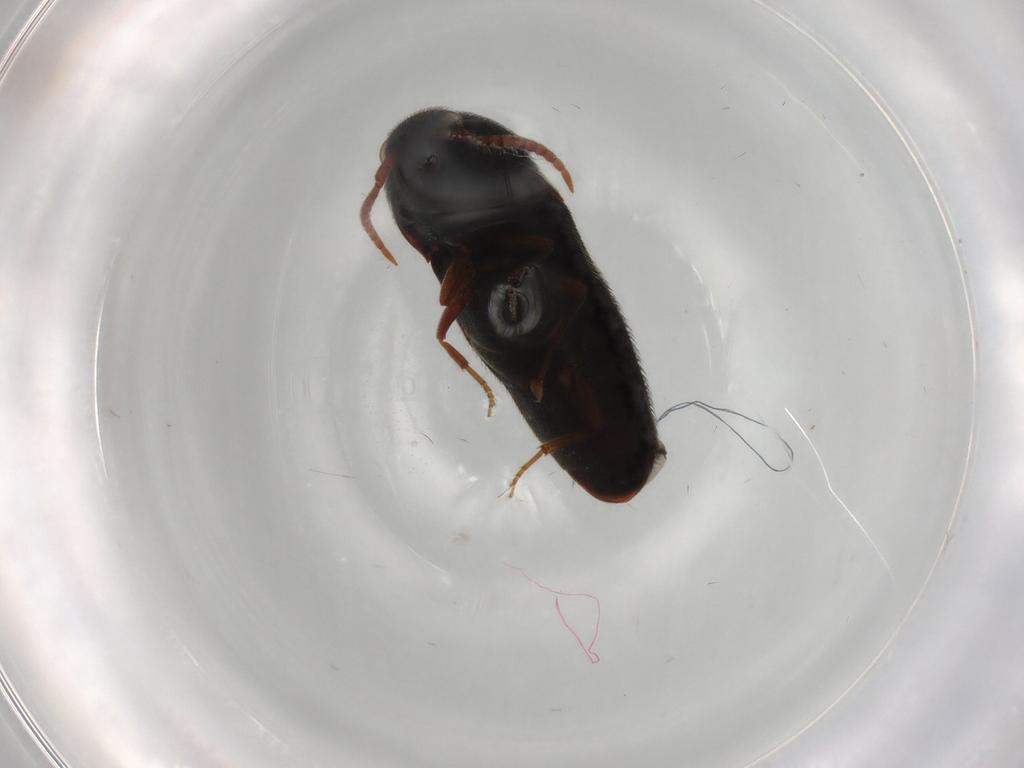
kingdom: Animalia
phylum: Arthropoda
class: Insecta
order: Coleoptera
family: Eucnemidae
